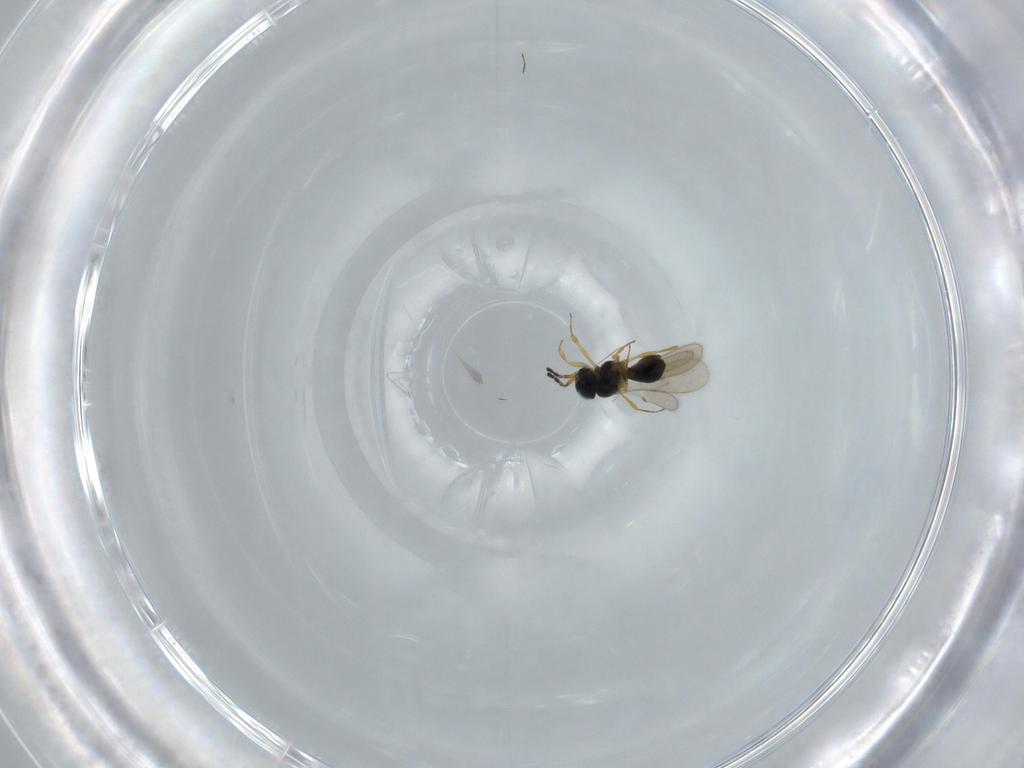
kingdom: Animalia
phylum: Arthropoda
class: Insecta
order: Hymenoptera
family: Scelionidae
